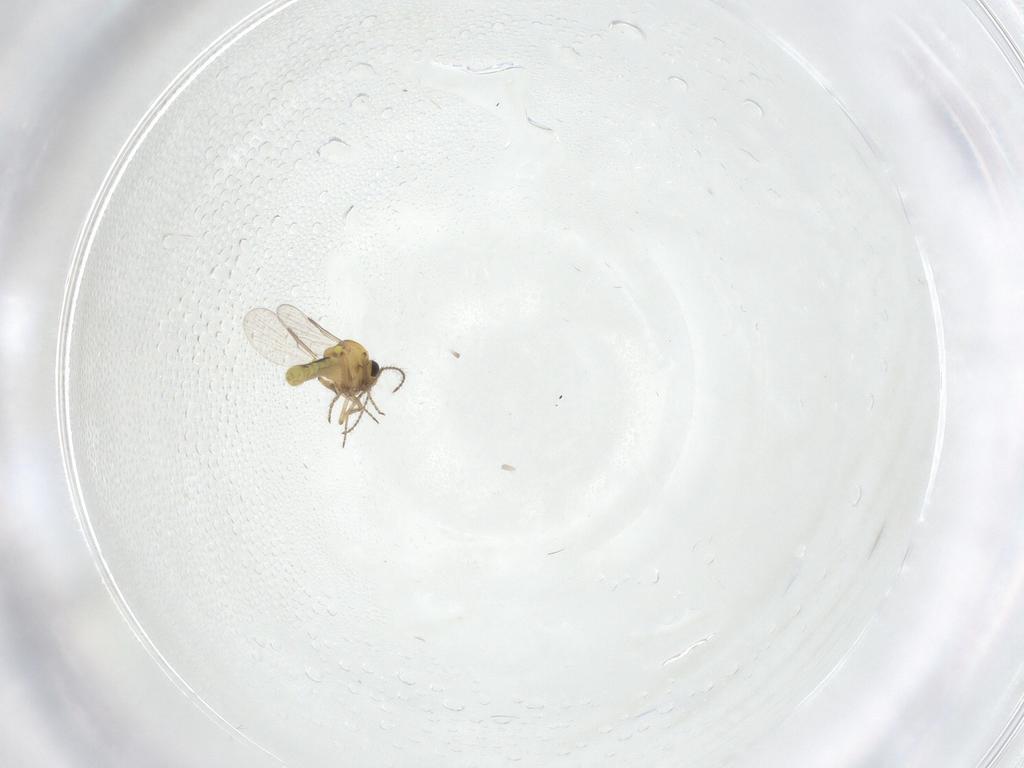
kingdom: Animalia
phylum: Arthropoda
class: Insecta
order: Diptera
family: Ceratopogonidae
